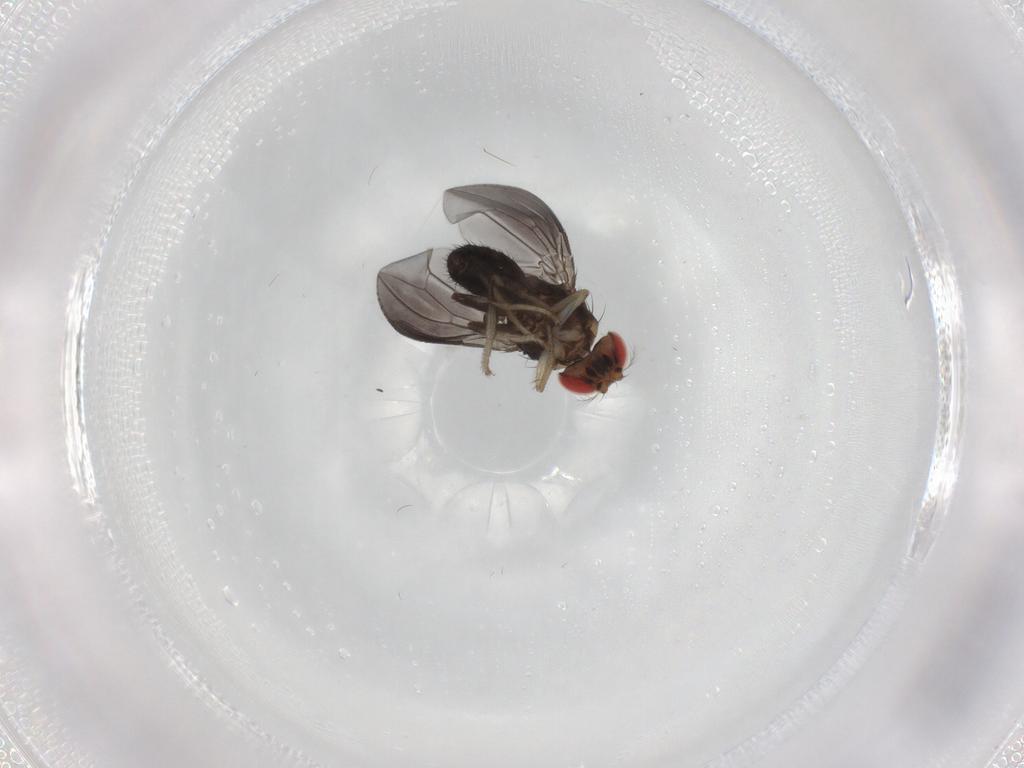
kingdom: Animalia
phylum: Arthropoda
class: Insecta
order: Diptera
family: Drosophilidae
